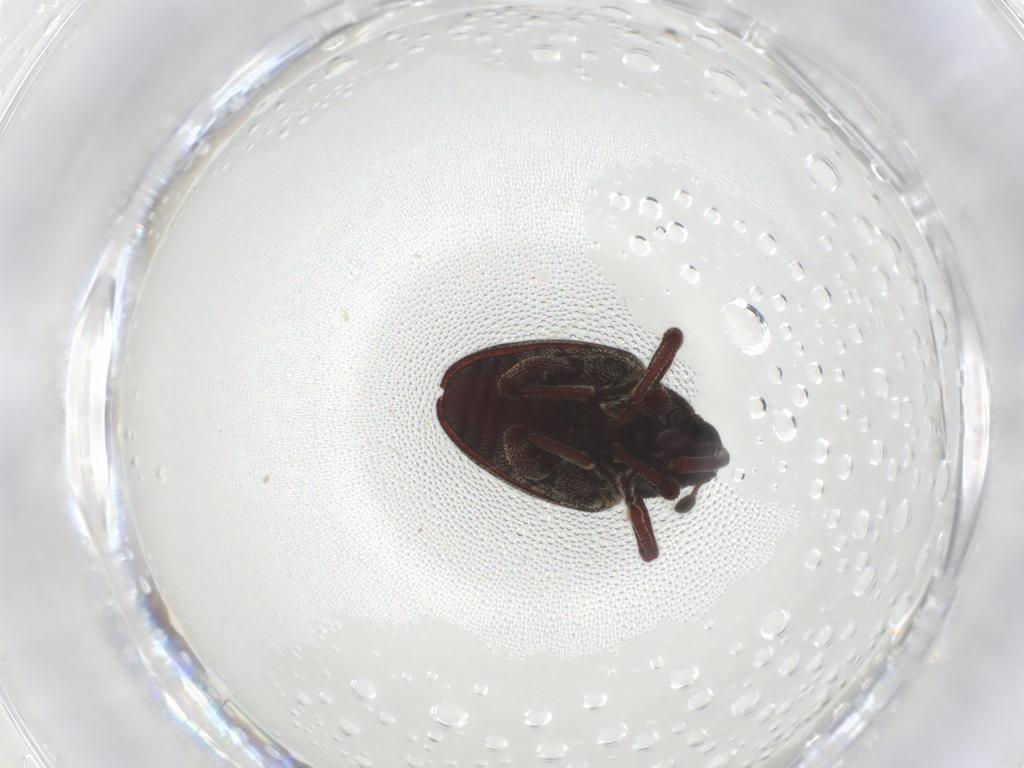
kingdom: Animalia
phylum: Arthropoda
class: Insecta
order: Coleoptera
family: Curculionidae
